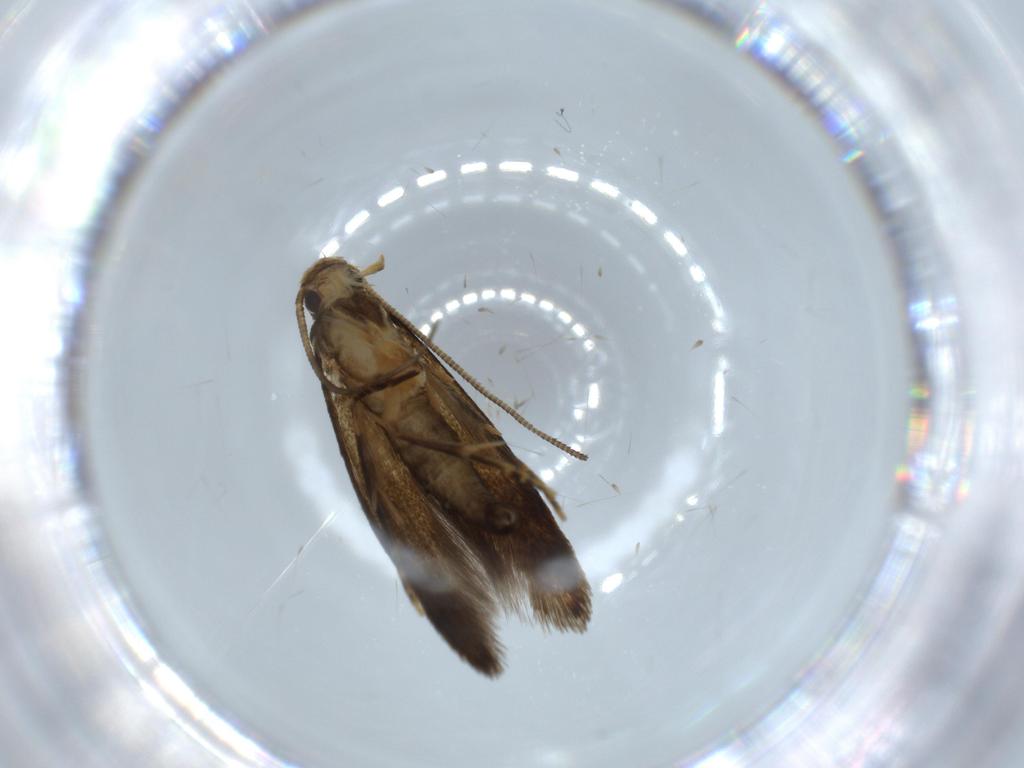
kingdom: Animalia
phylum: Arthropoda
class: Insecta
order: Lepidoptera
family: Tineidae
